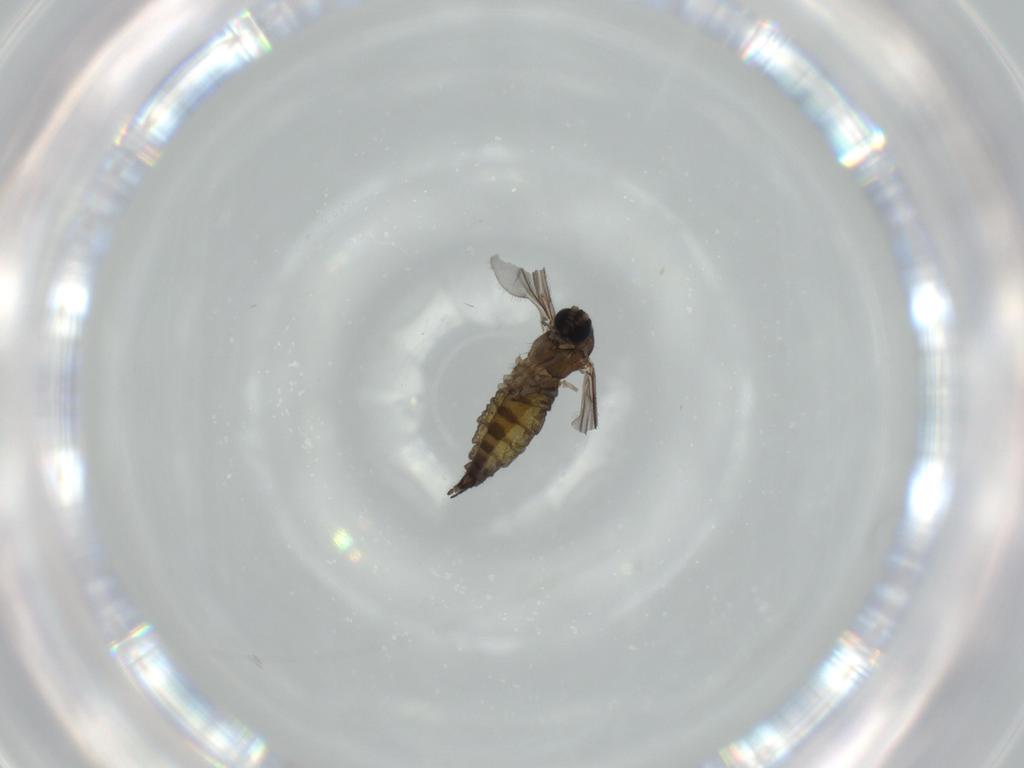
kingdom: Animalia
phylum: Arthropoda
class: Insecta
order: Diptera
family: Sciaridae
